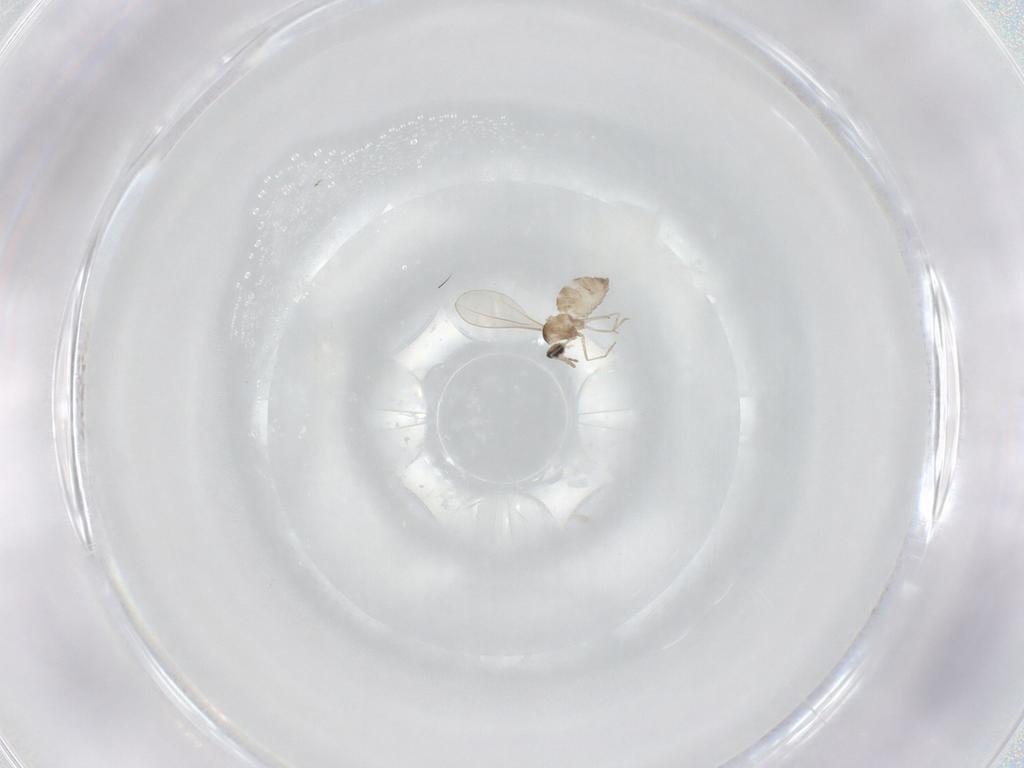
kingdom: Animalia
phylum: Arthropoda
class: Insecta
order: Diptera
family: Cecidomyiidae
